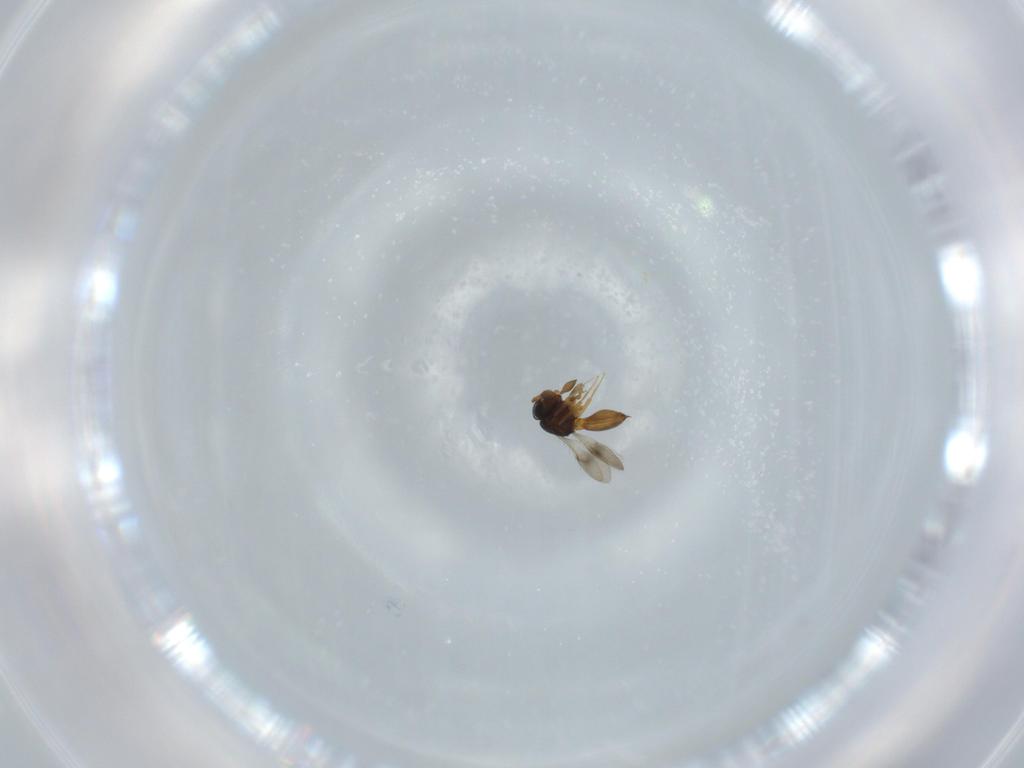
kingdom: Animalia
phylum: Arthropoda
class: Insecta
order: Hymenoptera
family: Scelionidae
